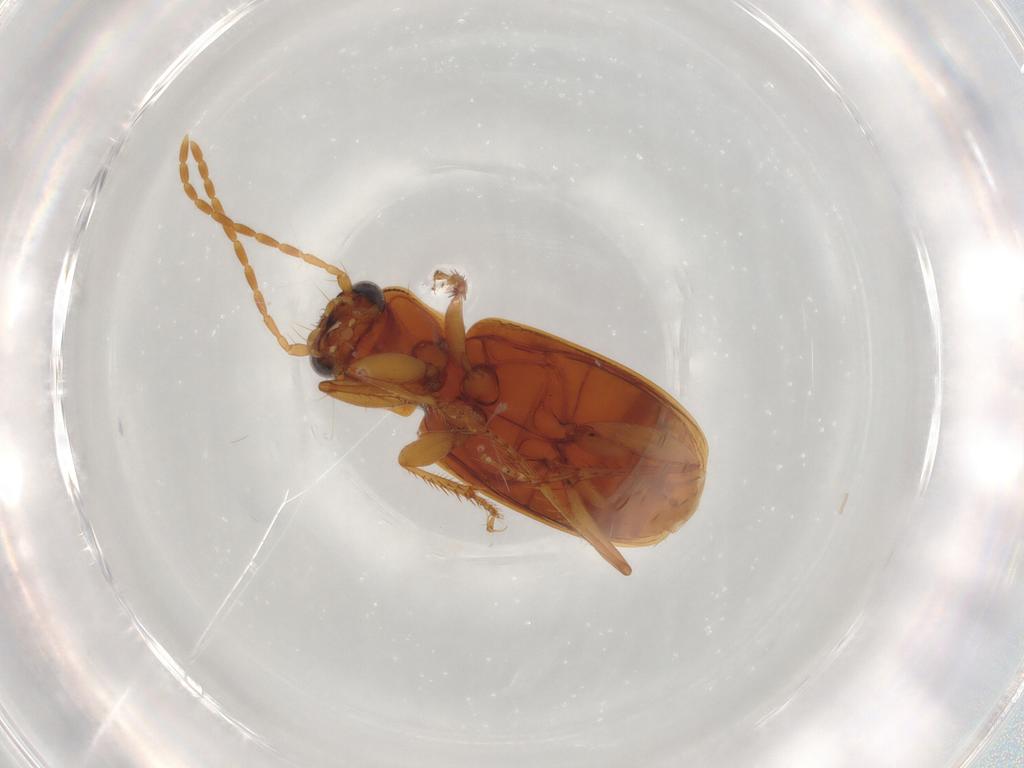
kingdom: Animalia
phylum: Arthropoda
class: Insecta
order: Coleoptera
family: Carabidae
